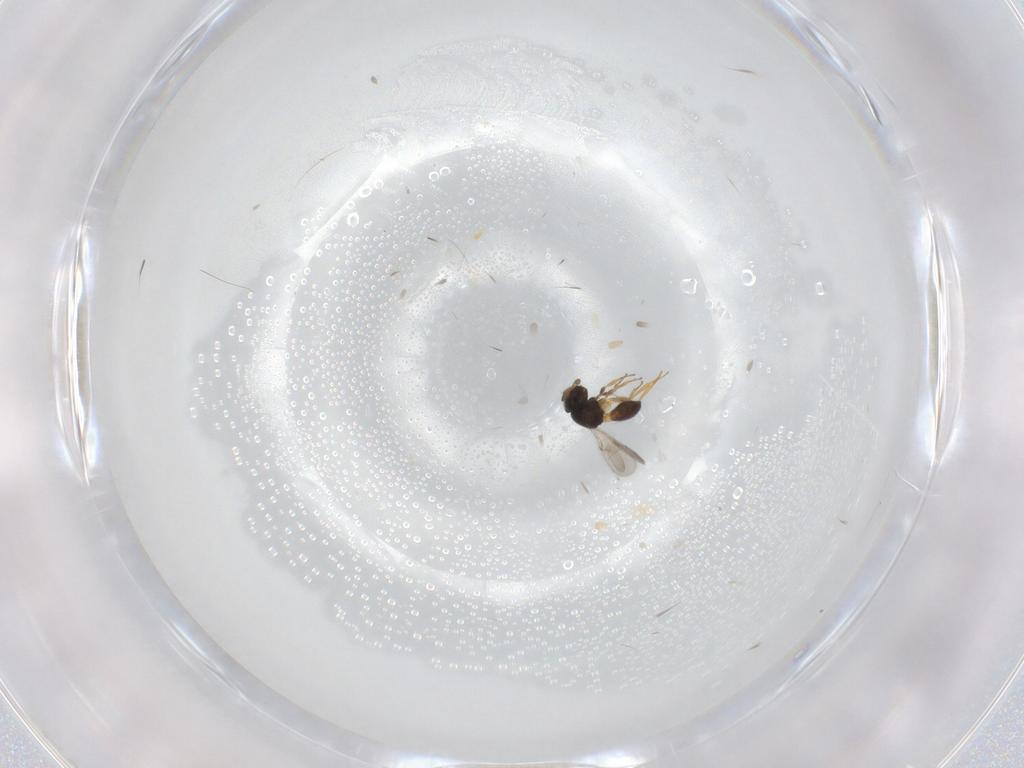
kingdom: Animalia
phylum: Arthropoda
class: Insecta
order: Hymenoptera
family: Scelionidae
